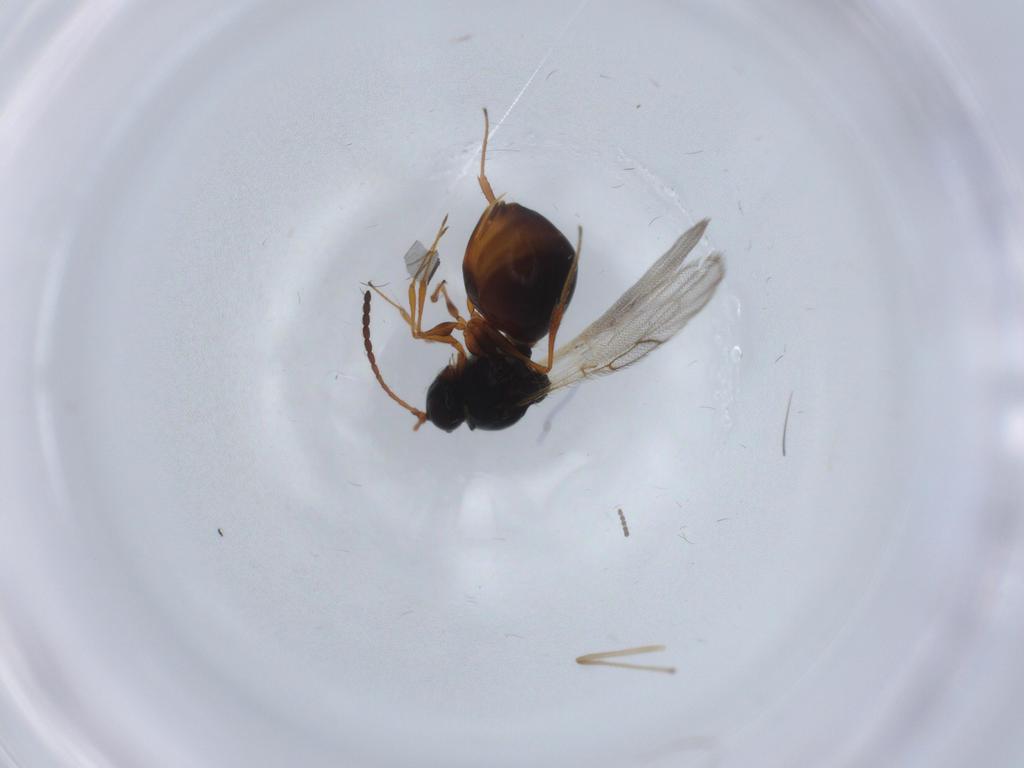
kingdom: Animalia
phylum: Arthropoda
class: Insecta
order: Hymenoptera
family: Figitidae
